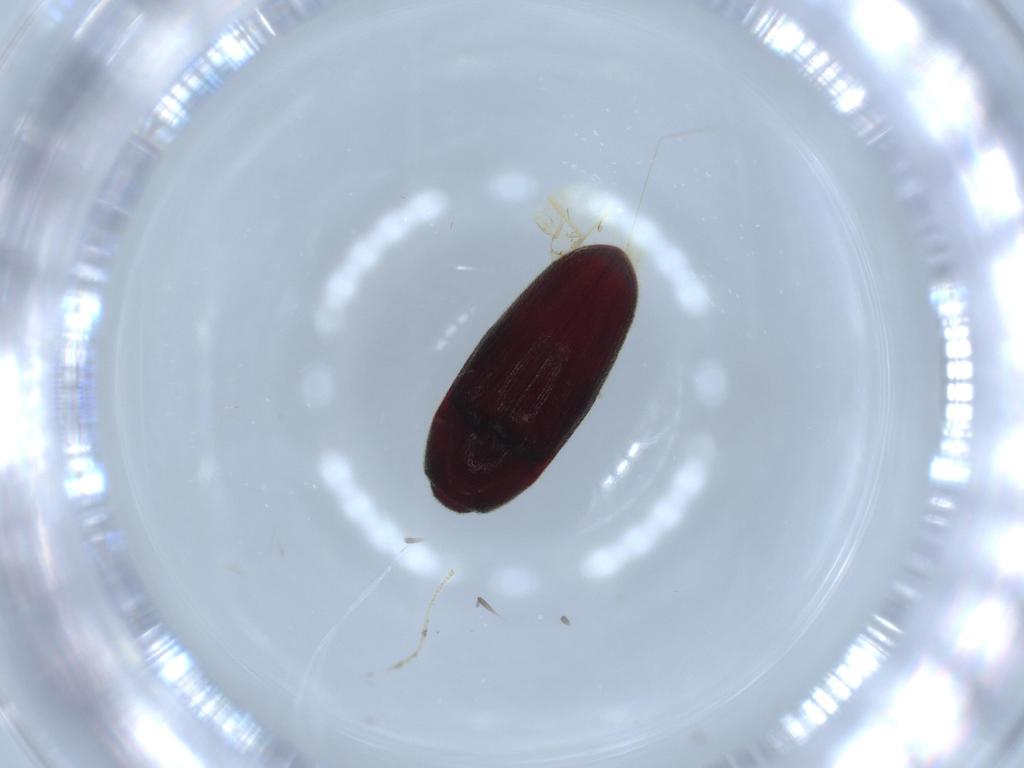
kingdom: Animalia
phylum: Arthropoda
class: Insecta
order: Coleoptera
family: Throscidae
